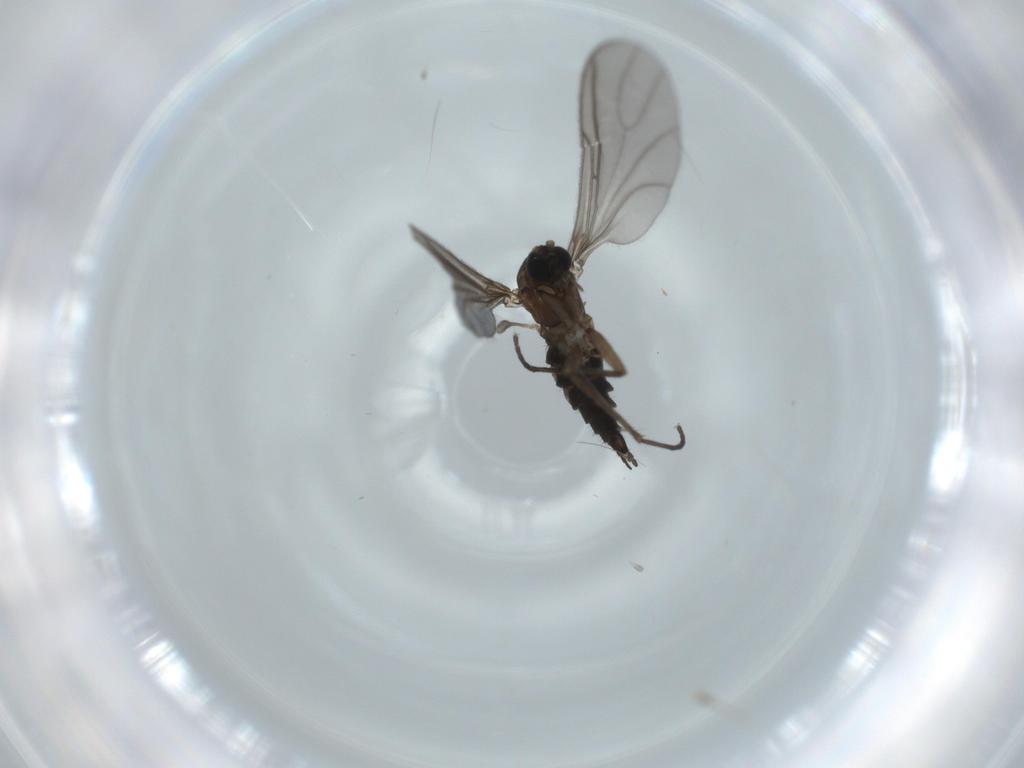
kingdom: Animalia
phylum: Arthropoda
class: Insecta
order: Diptera
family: Sciaridae
